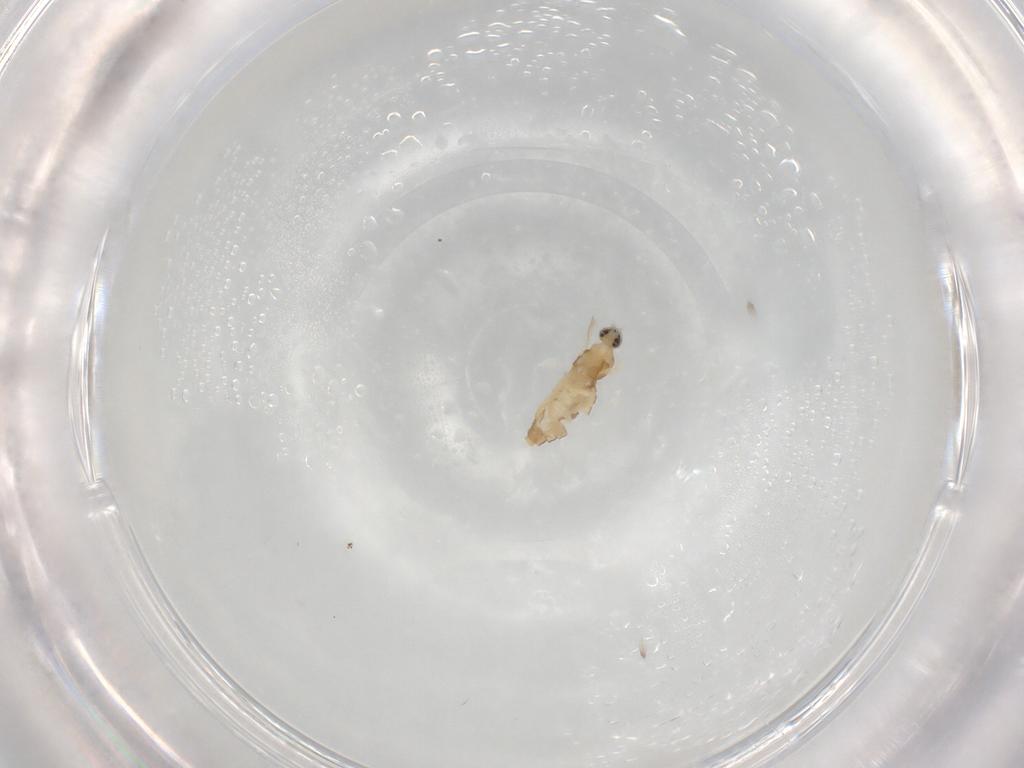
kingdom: Animalia
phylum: Arthropoda
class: Insecta
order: Diptera
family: Cecidomyiidae
